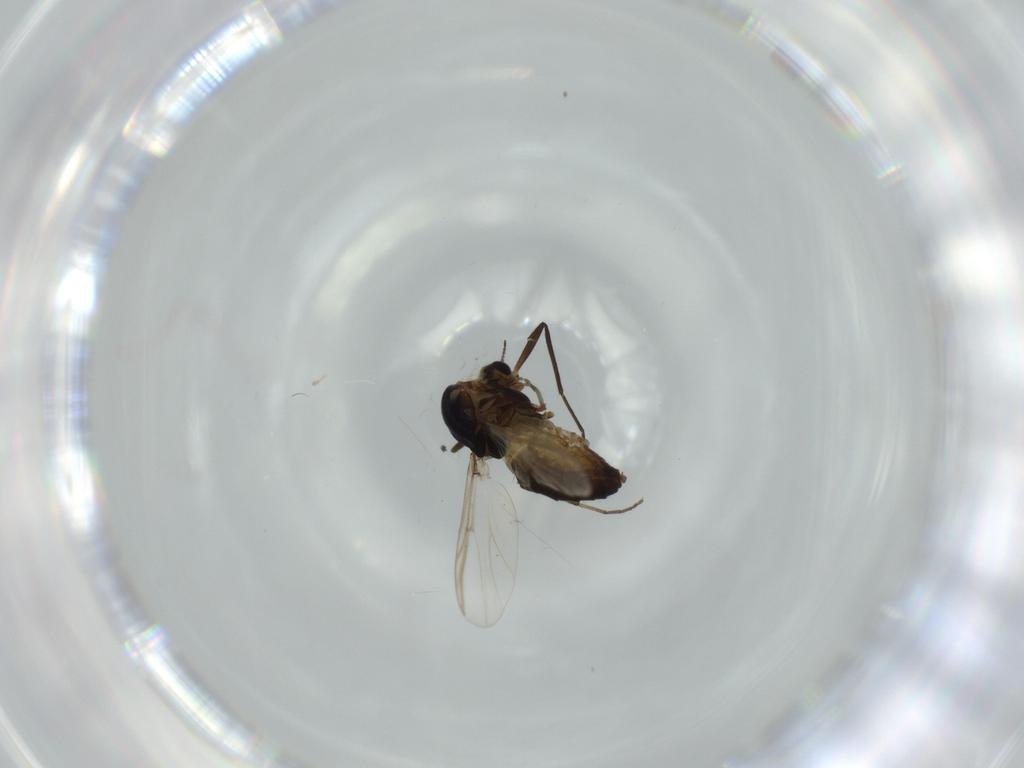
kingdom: Animalia
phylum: Arthropoda
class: Insecta
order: Diptera
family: Chironomidae
